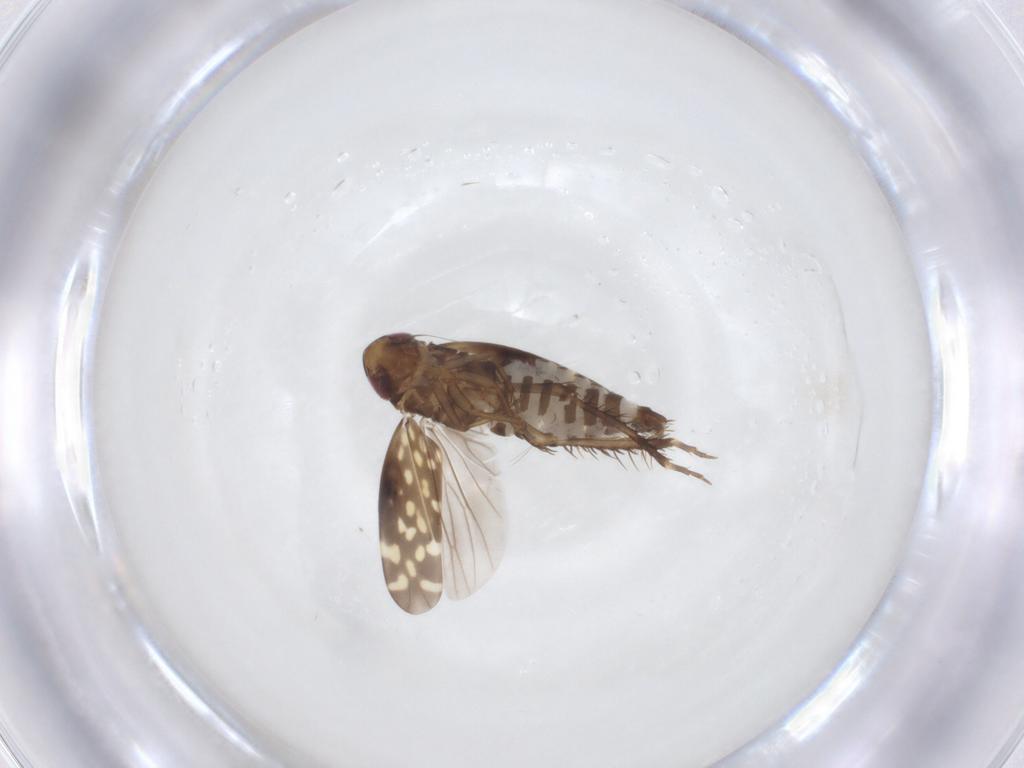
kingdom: Animalia
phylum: Arthropoda
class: Insecta
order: Hemiptera
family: Cicadellidae
